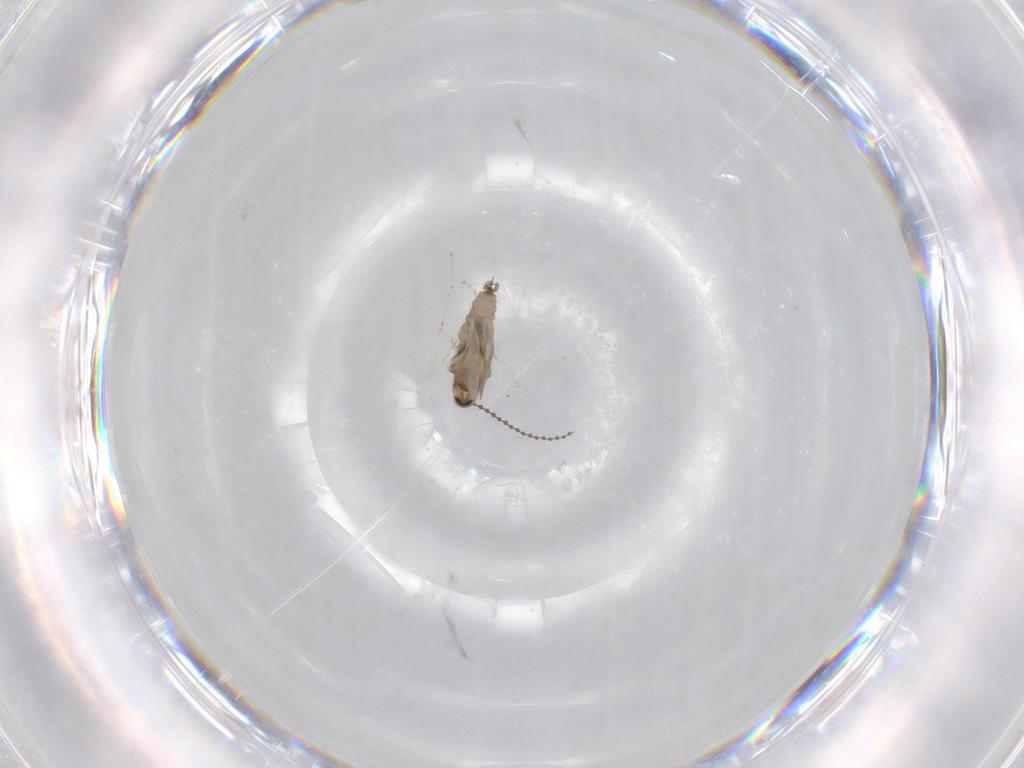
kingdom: Animalia
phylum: Arthropoda
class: Insecta
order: Diptera
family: Cecidomyiidae
